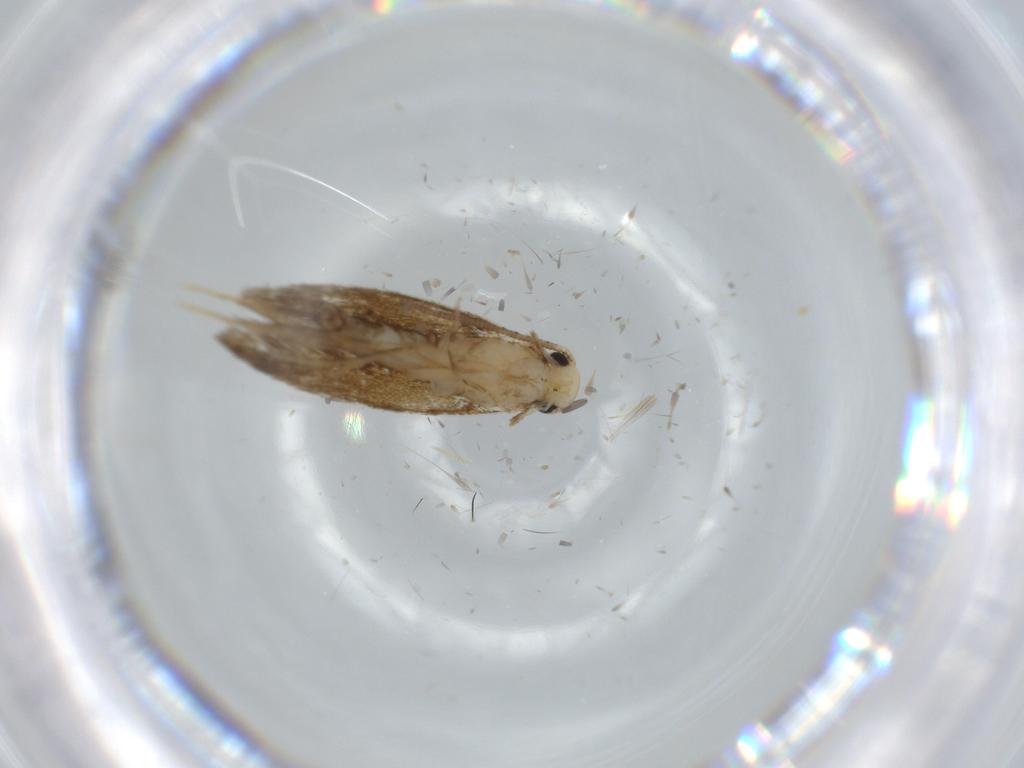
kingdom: Animalia
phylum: Arthropoda
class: Insecta
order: Lepidoptera
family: Tineidae
